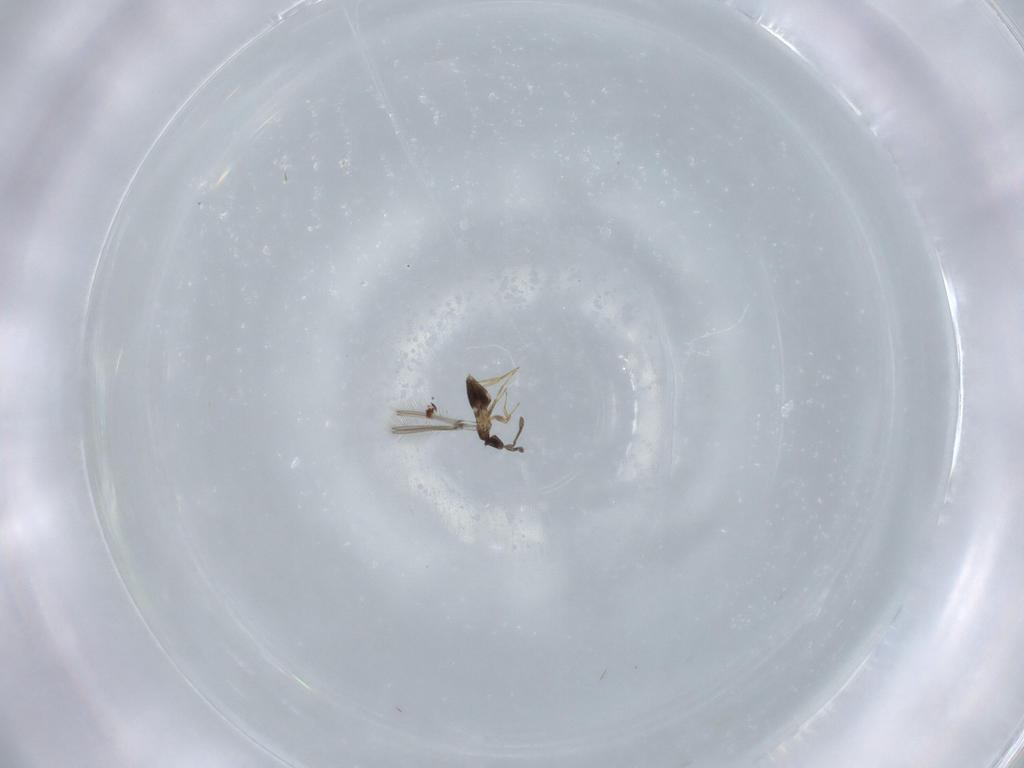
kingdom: Animalia
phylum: Arthropoda
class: Insecta
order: Hymenoptera
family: Mymaridae
